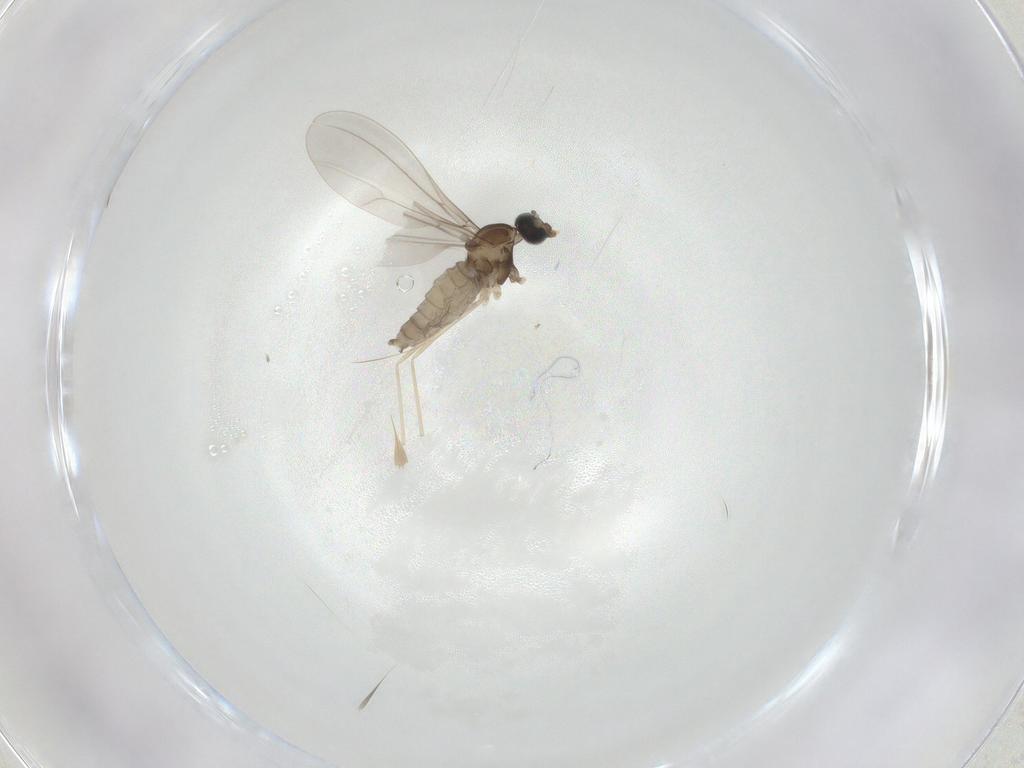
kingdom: Animalia
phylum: Arthropoda
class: Insecta
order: Diptera
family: Cecidomyiidae
